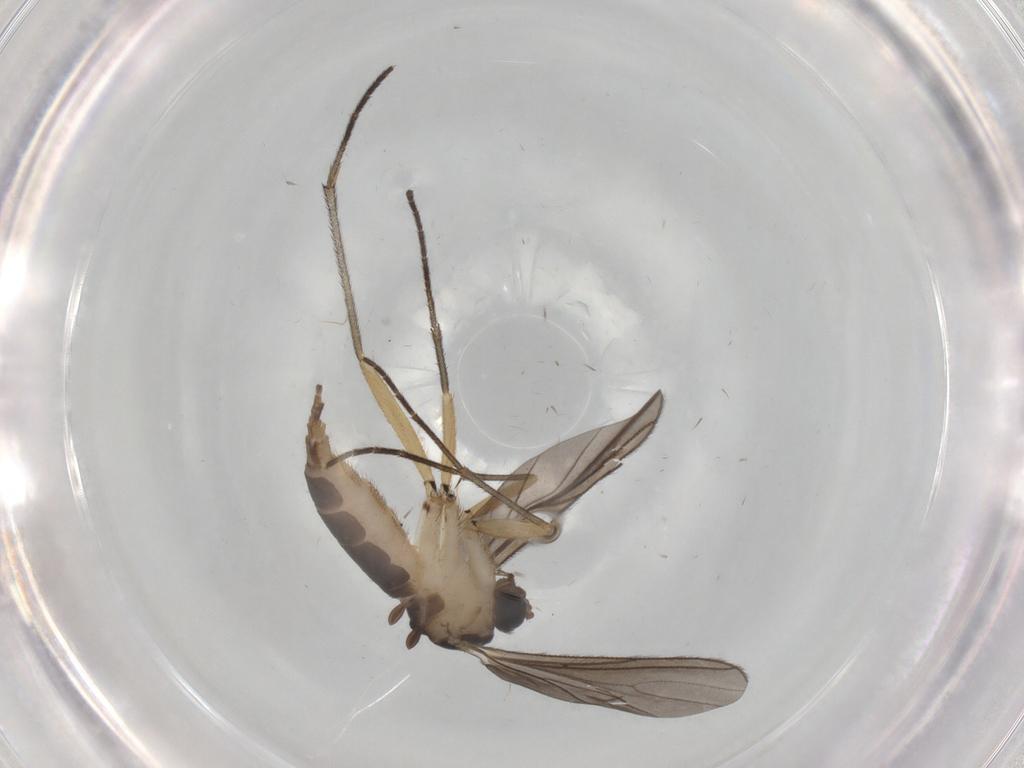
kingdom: Animalia
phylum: Arthropoda
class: Insecta
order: Diptera
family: Sciaridae
